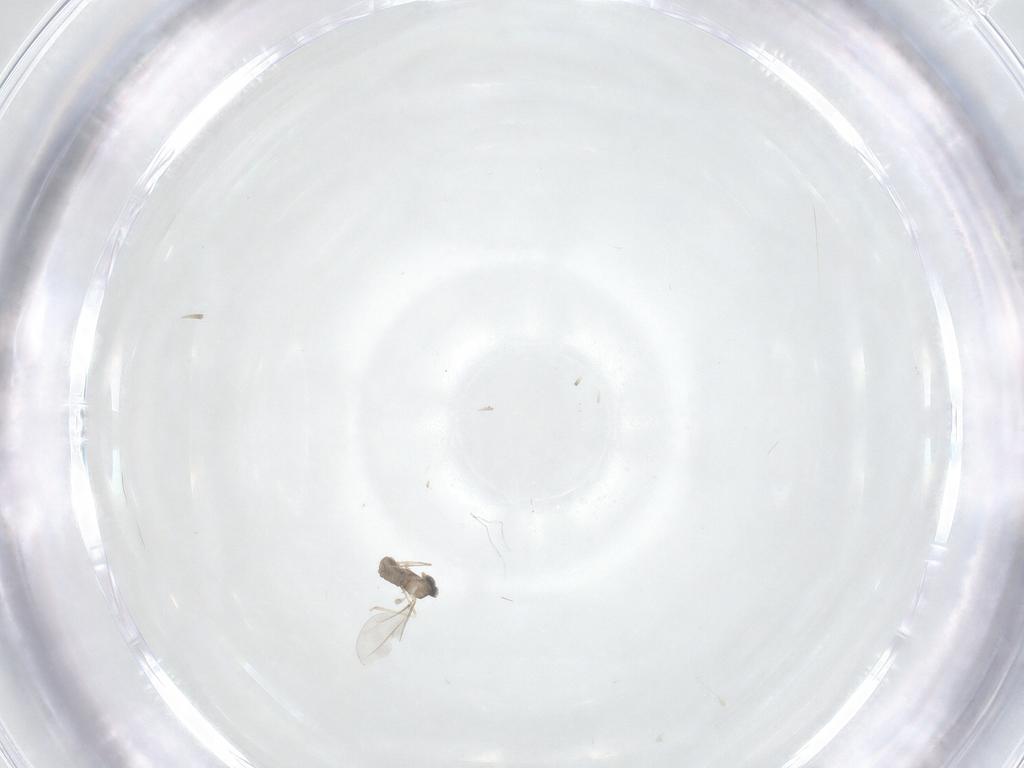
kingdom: Animalia
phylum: Arthropoda
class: Insecta
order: Diptera
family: Cecidomyiidae
